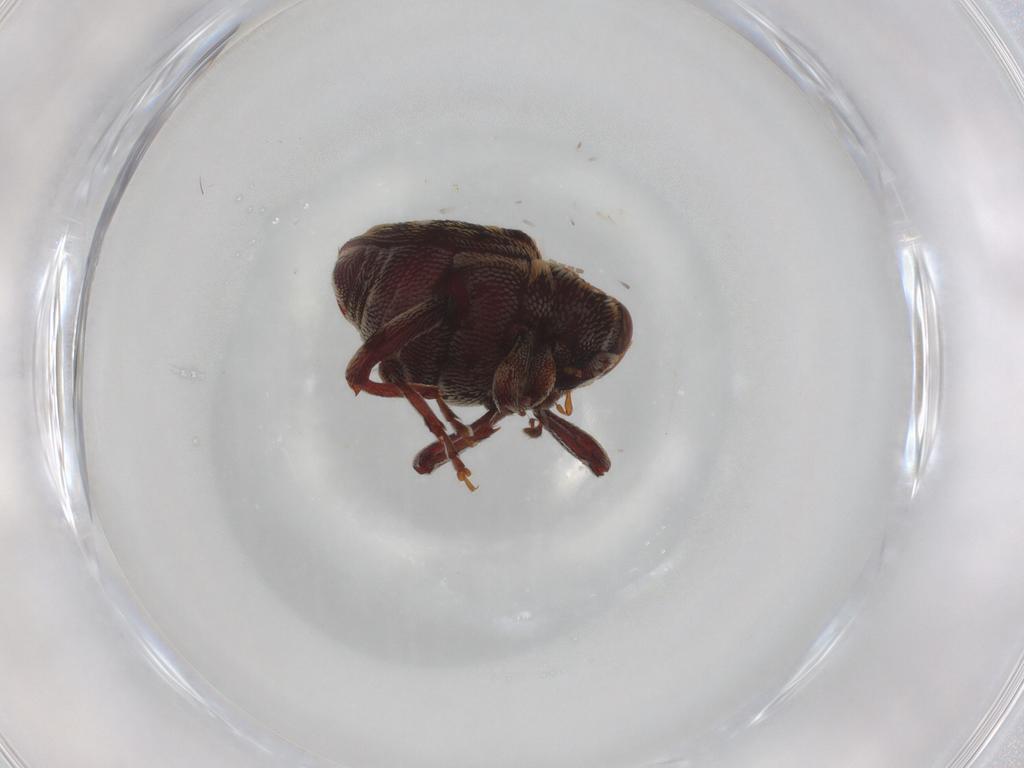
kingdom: Animalia
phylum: Arthropoda
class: Insecta
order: Coleoptera
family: Curculionidae
